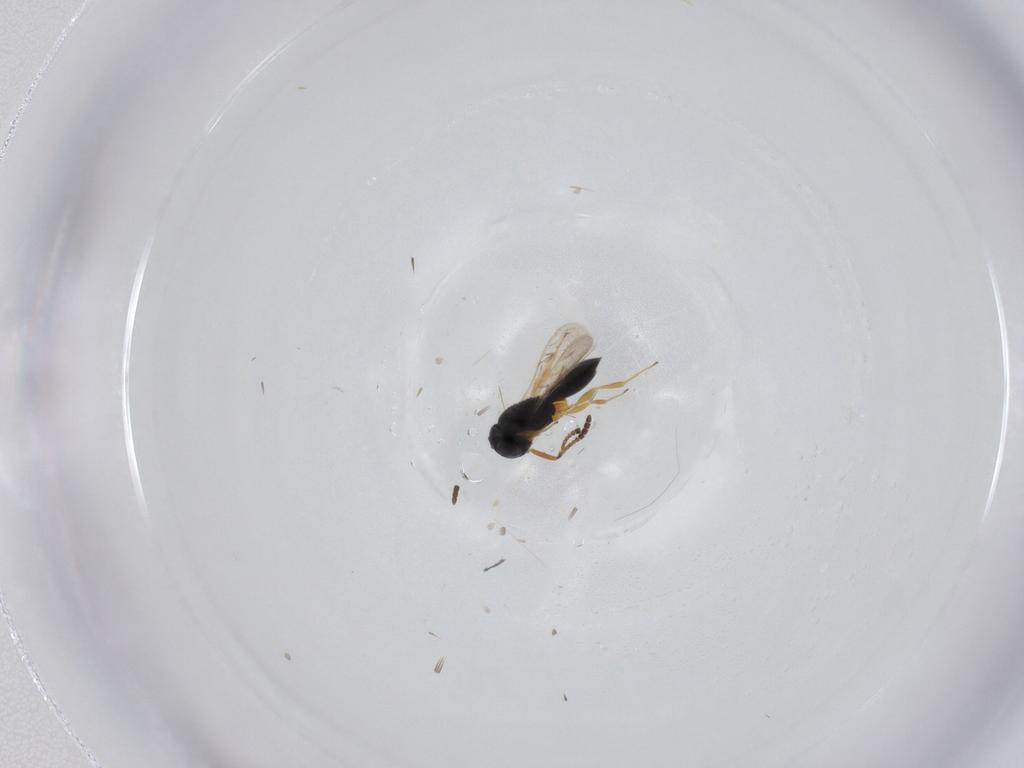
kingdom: Animalia
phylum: Arthropoda
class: Insecta
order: Hymenoptera
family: Scelionidae
